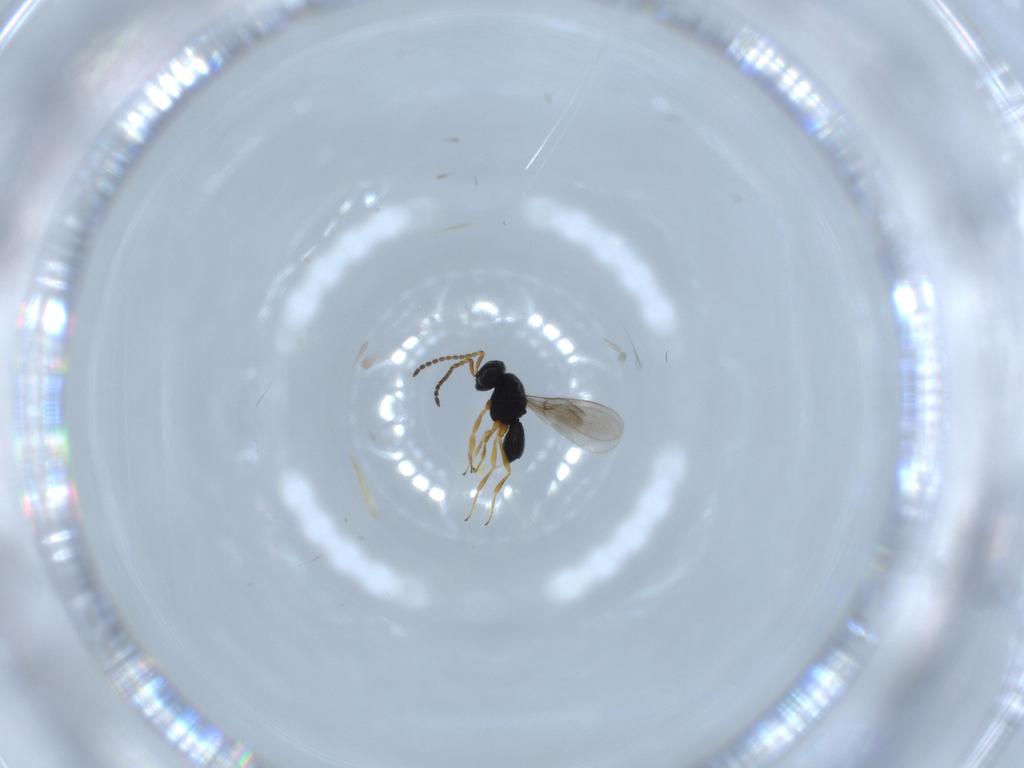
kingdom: Animalia
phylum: Arthropoda
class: Insecta
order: Hymenoptera
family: Scelionidae
